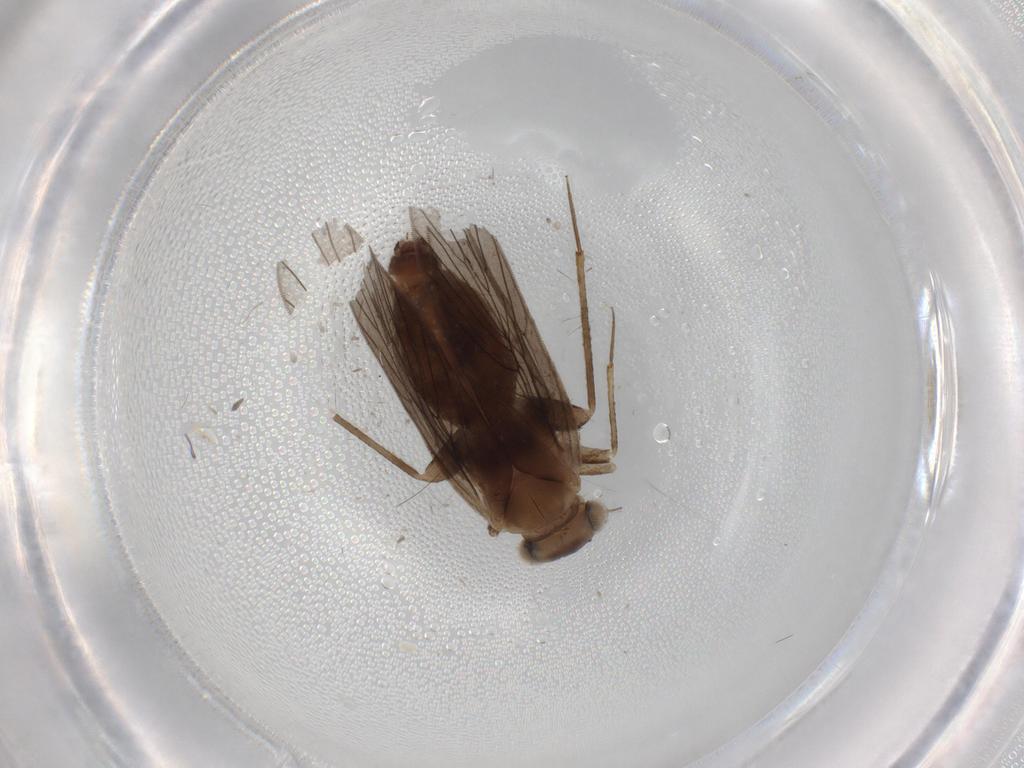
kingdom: Animalia
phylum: Arthropoda
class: Insecta
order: Psocodea
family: Lepidopsocidae
